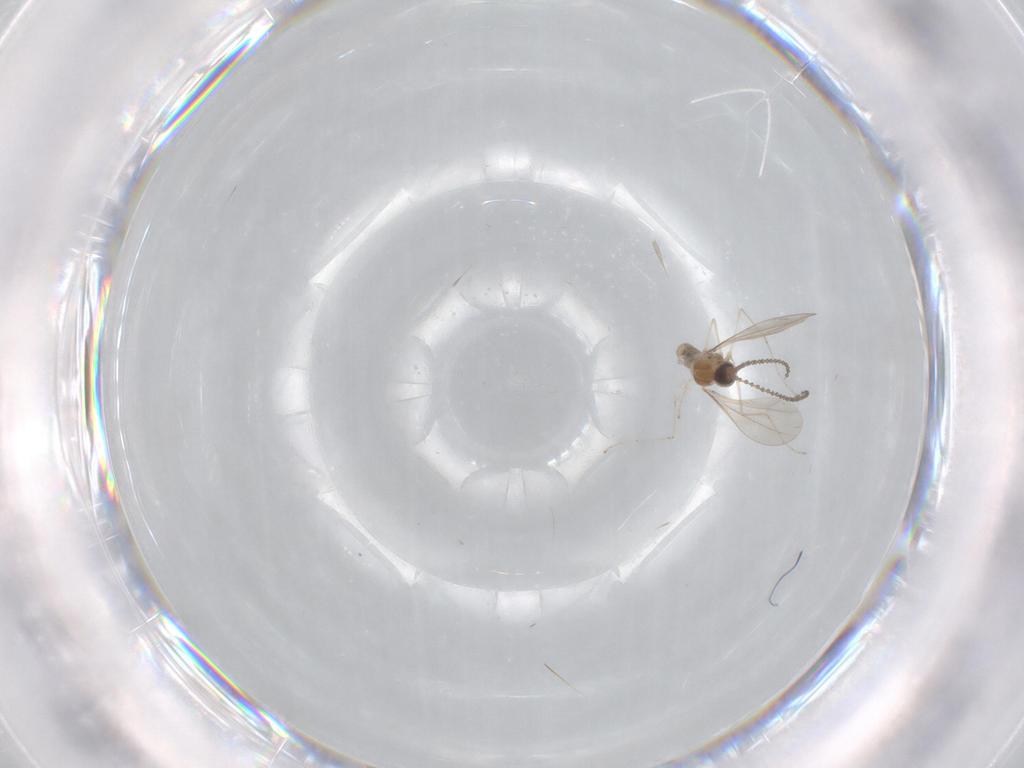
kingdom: Animalia
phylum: Arthropoda
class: Insecta
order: Diptera
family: Cecidomyiidae
